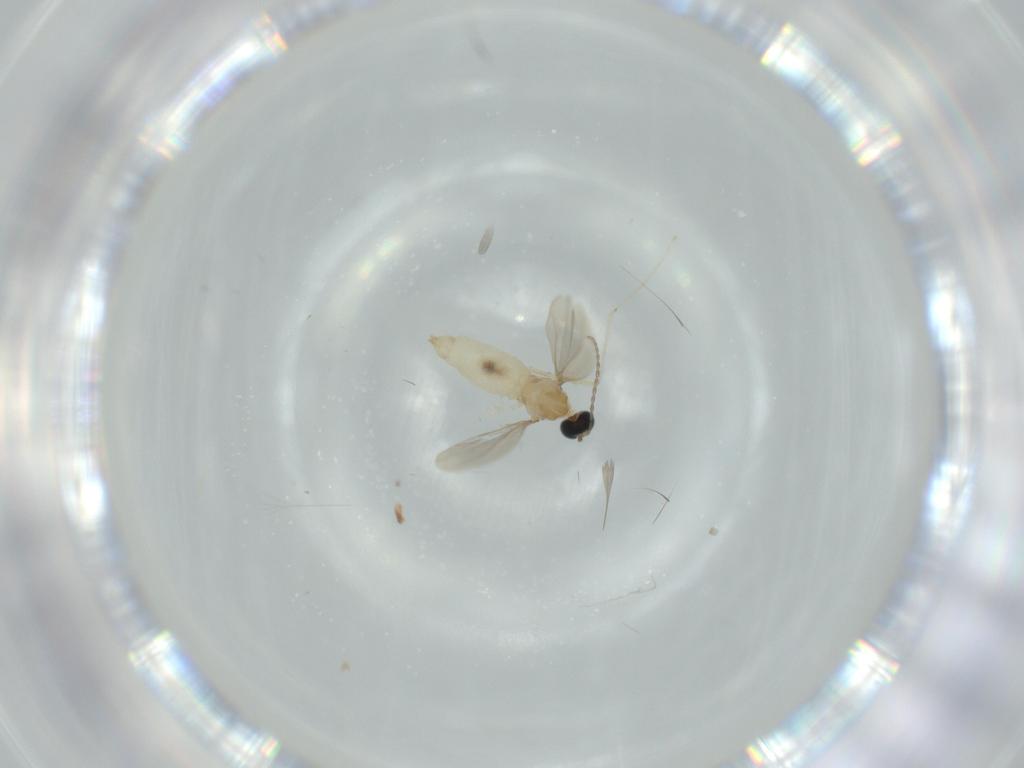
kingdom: Animalia
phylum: Arthropoda
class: Insecta
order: Diptera
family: Cecidomyiidae
